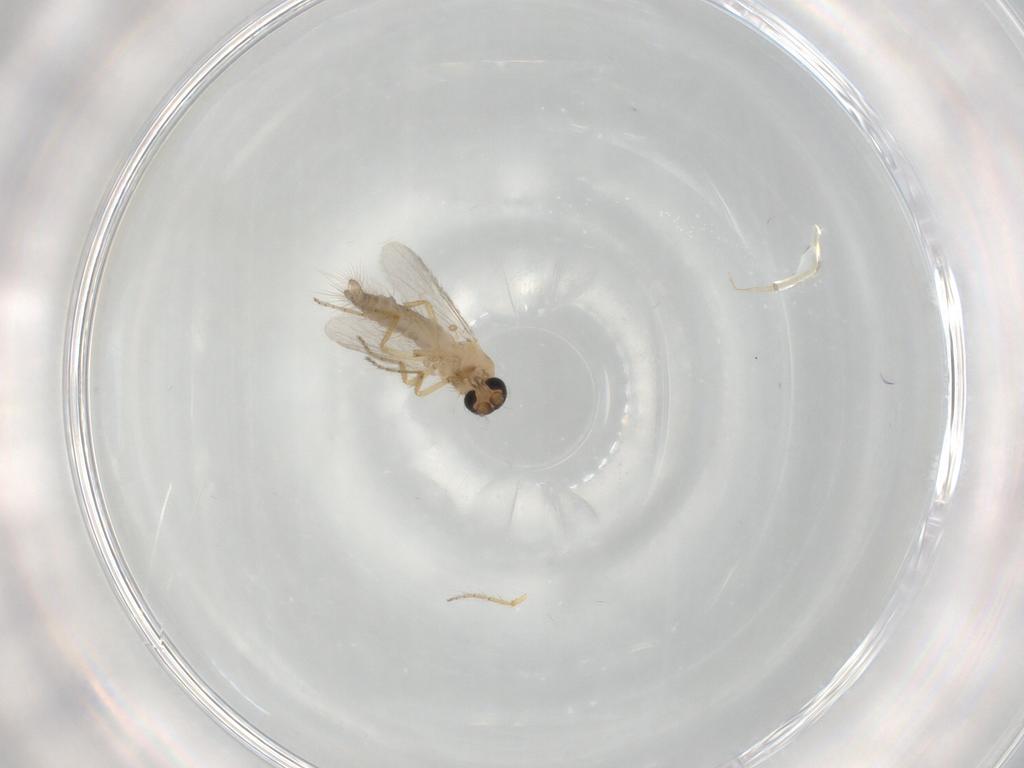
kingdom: Animalia
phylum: Arthropoda
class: Insecta
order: Diptera
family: Ceratopogonidae
